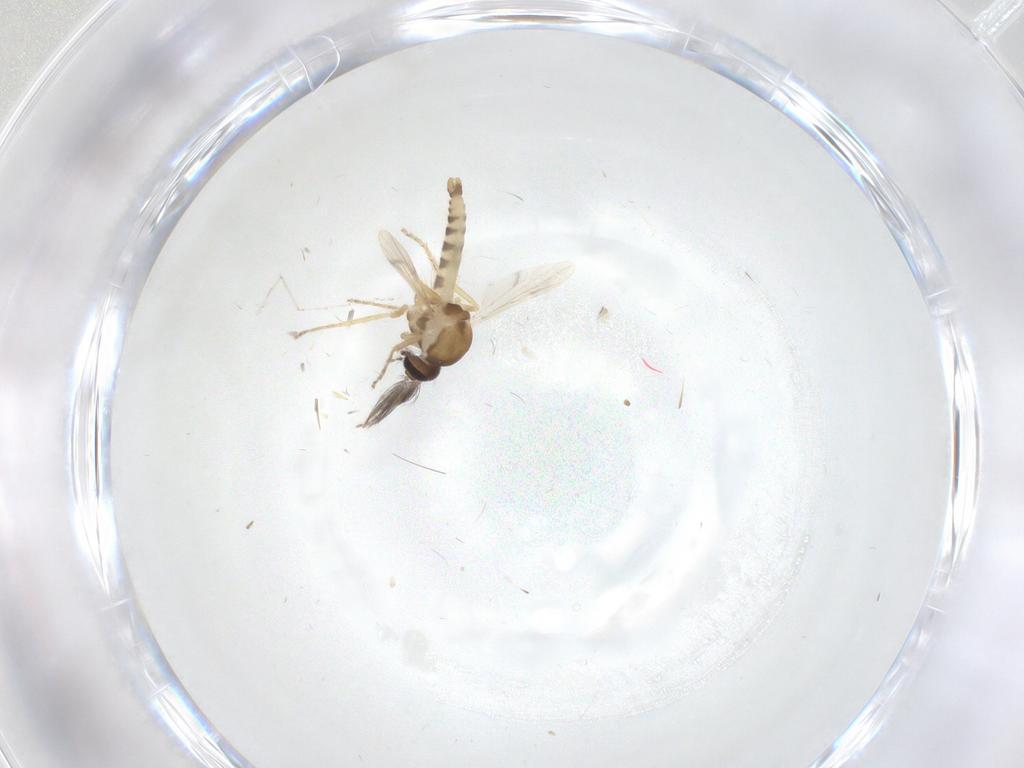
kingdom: Animalia
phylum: Arthropoda
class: Insecta
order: Diptera
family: Ceratopogonidae
